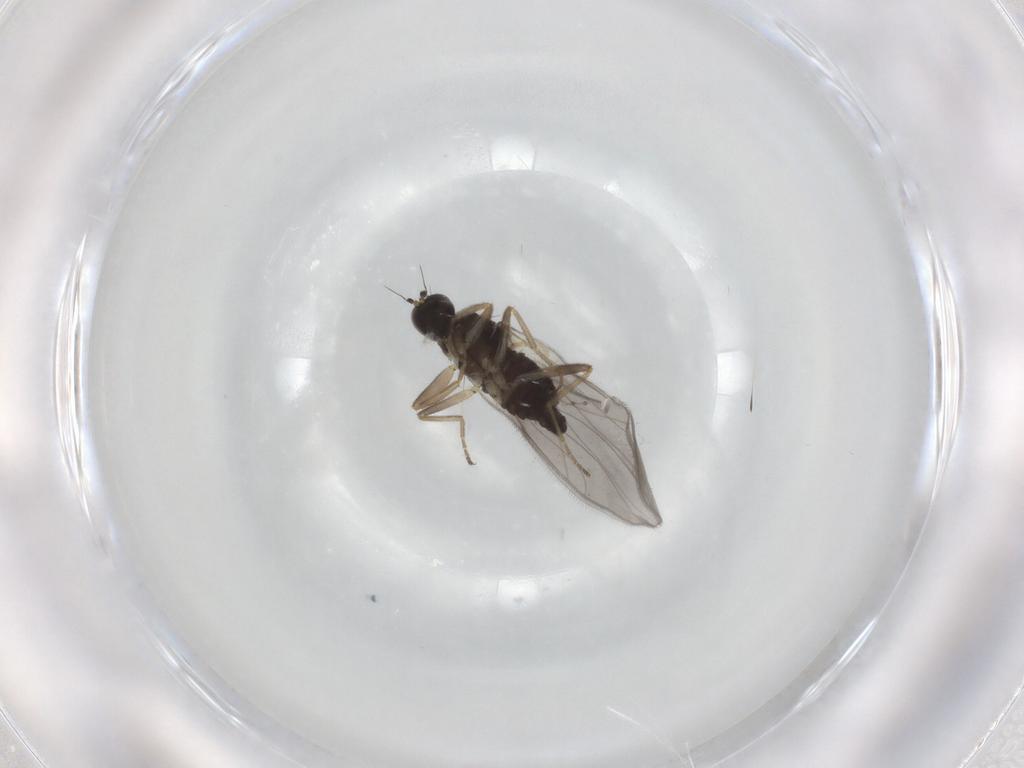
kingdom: Animalia
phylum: Arthropoda
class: Insecta
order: Diptera
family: Hybotidae
